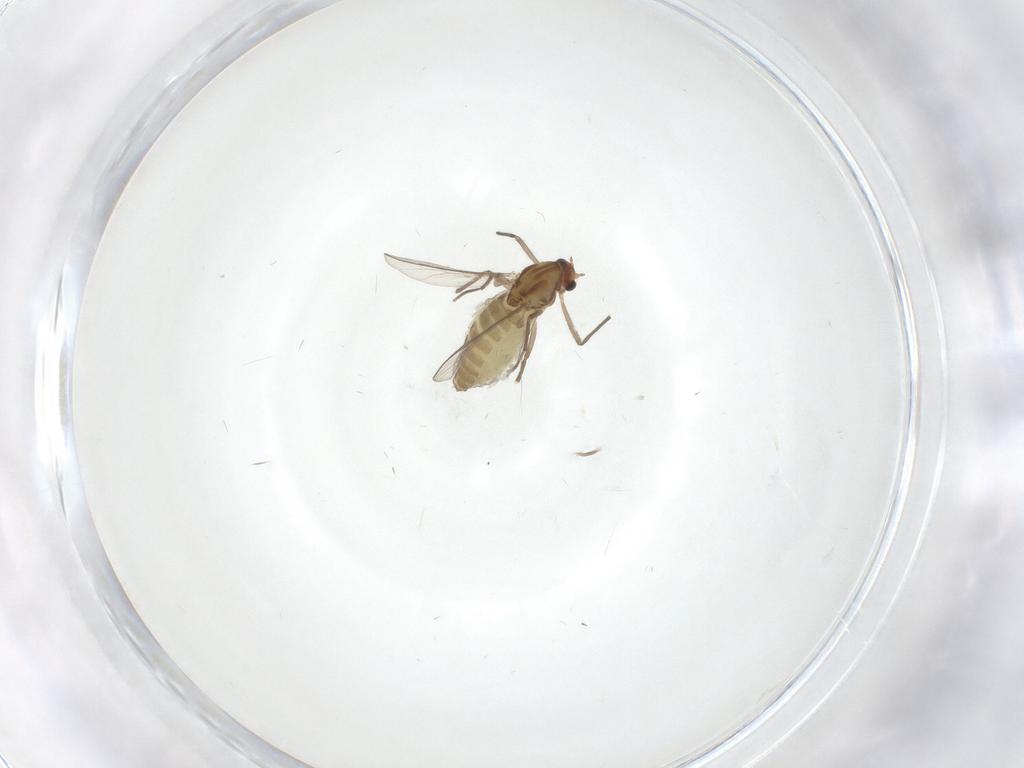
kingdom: Animalia
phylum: Arthropoda
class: Insecta
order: Diptera
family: Chironomidae
